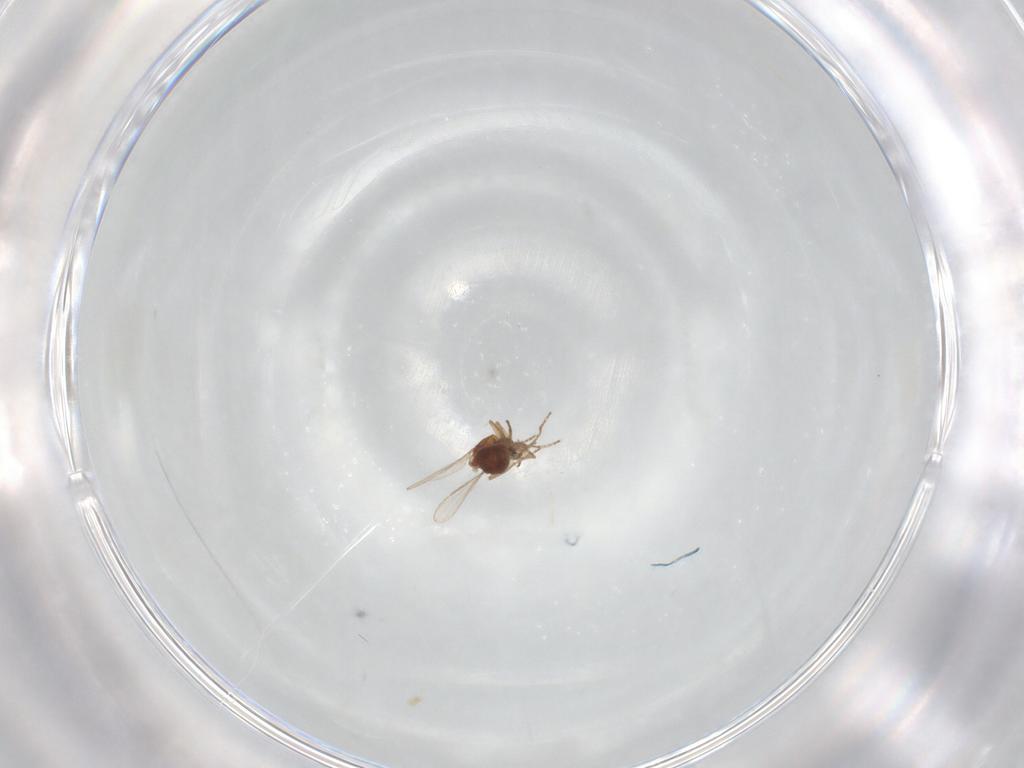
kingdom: Animalia
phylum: Arthropoda
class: Insecta
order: Diptera
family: Ceratopogonidae
